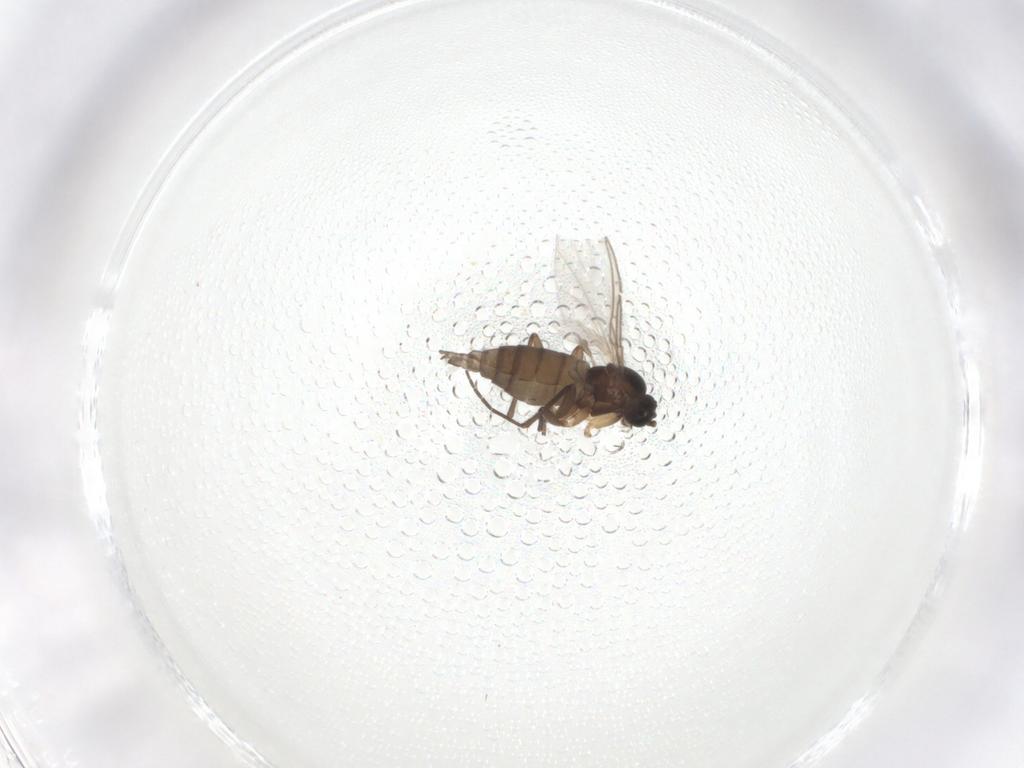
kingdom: Animalia
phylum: Arthropoda
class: Insecta
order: Diptera
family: Sciaridae
